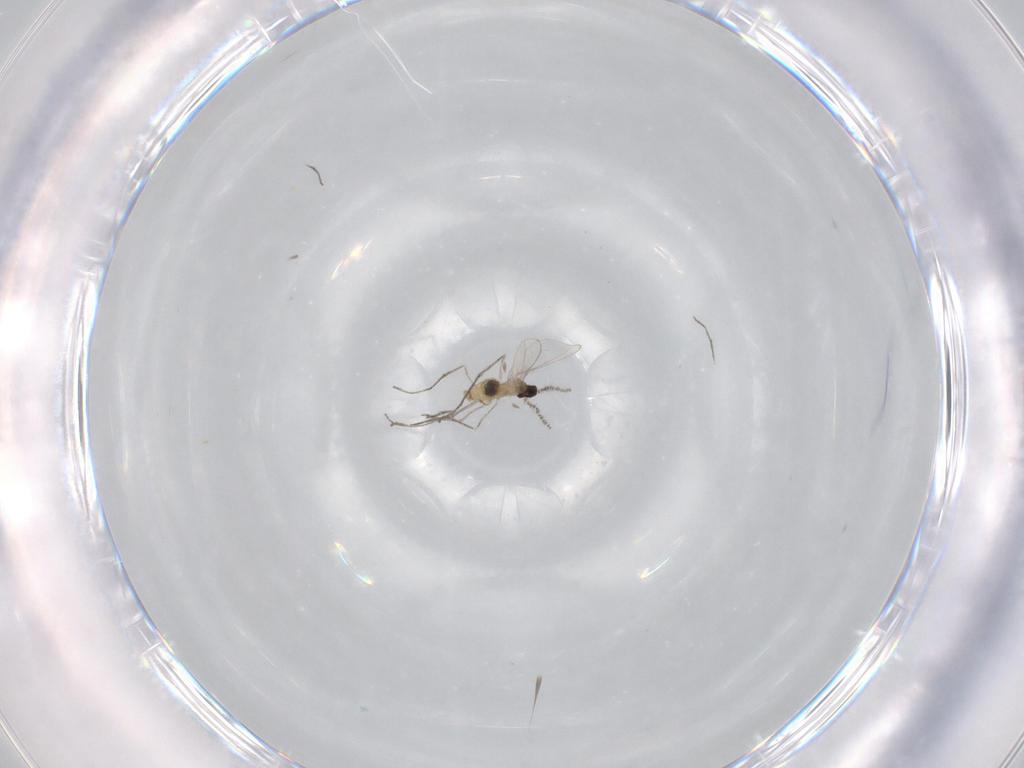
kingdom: Animalia
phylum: Arthropoda
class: Insecta
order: Diptera
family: Cecidomyiidae
